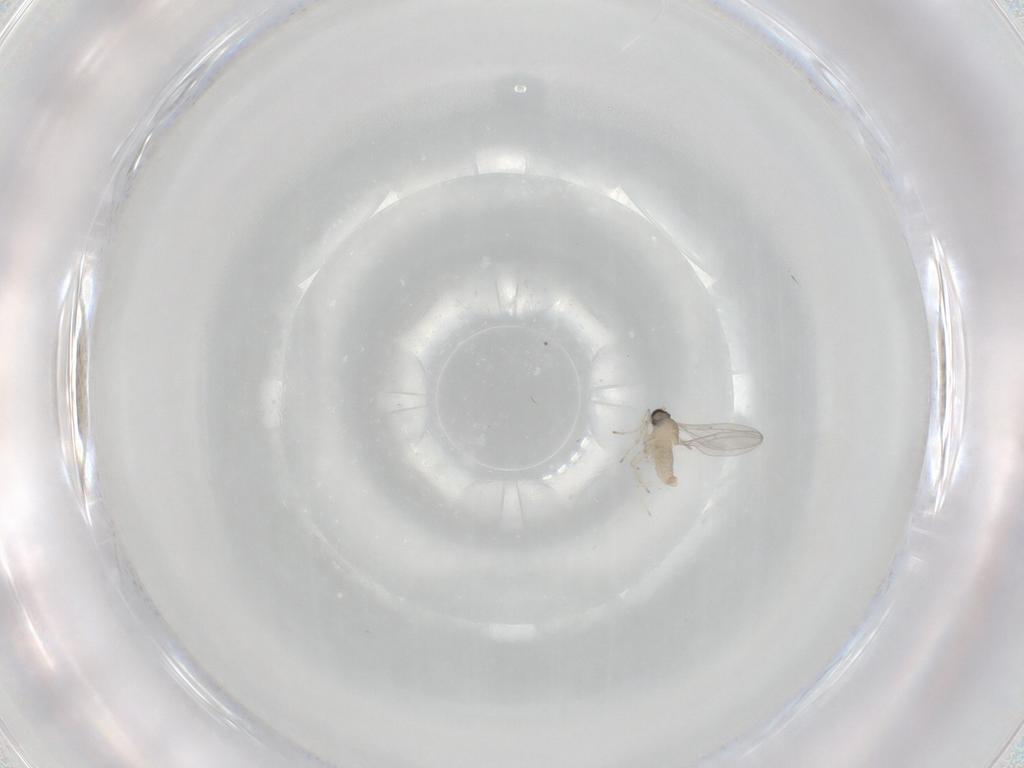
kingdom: Animalia
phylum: Arthropoda
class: Insecta
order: Diptera
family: Cecidomyiidae
